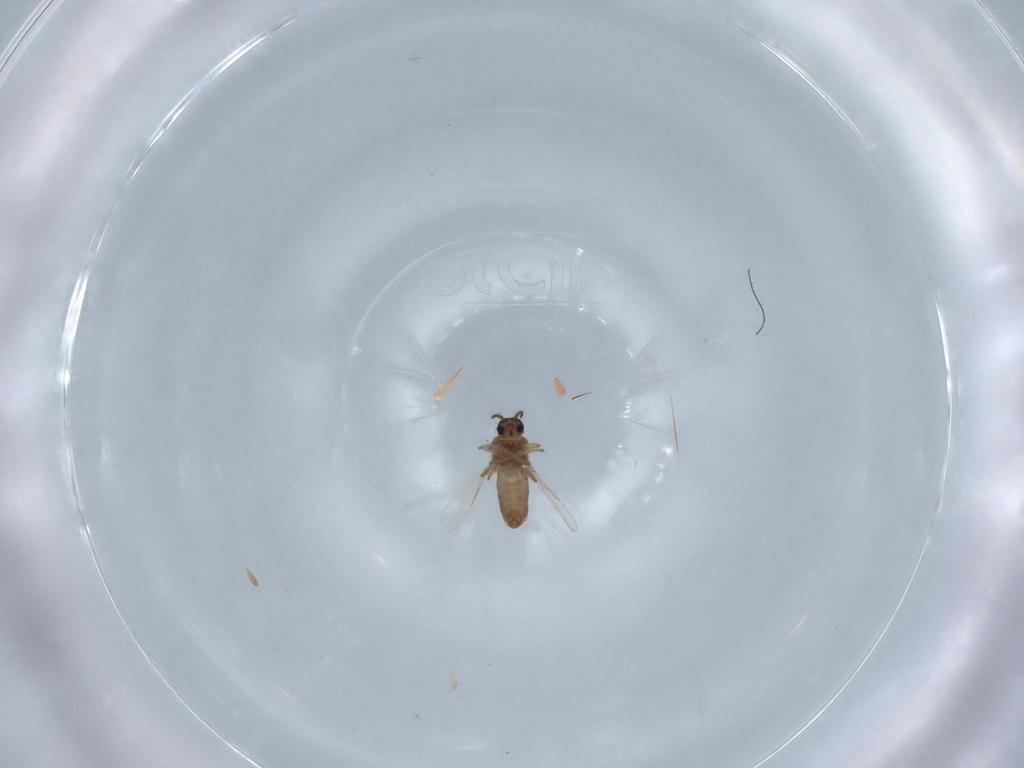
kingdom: Animalia
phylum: Arthropoda
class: Insecta
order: Diptera
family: Ceratopogonidae
